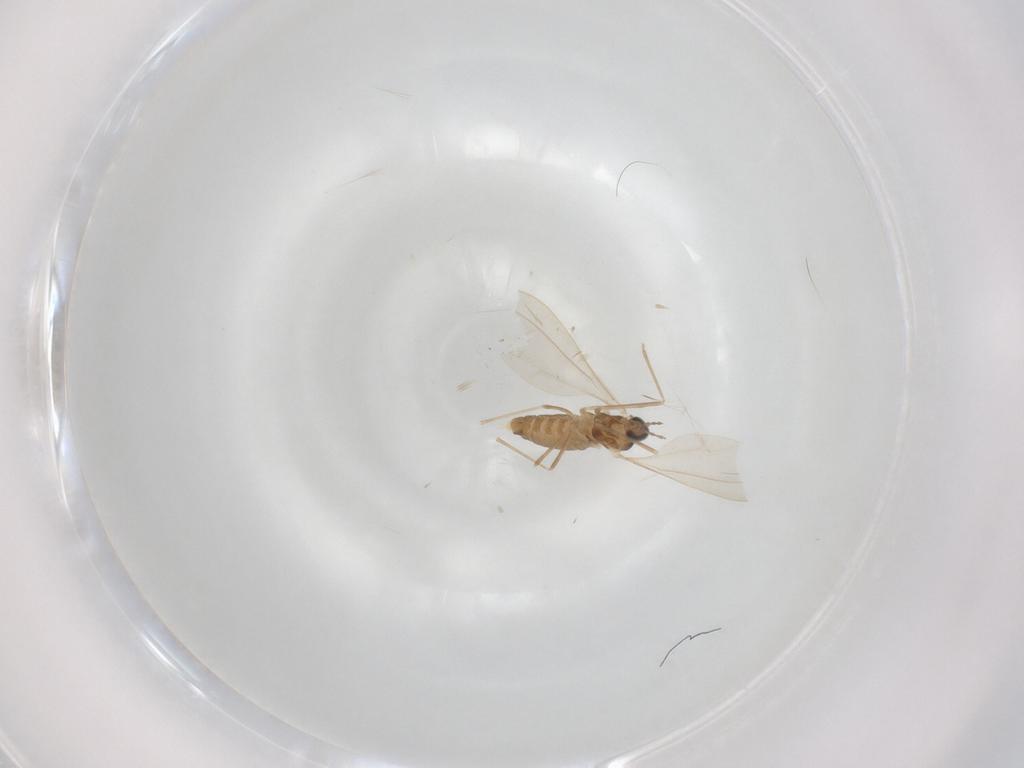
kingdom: Animalia
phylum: Arthropoda
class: Insecta
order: Diptera
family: Cecidomyiidae
